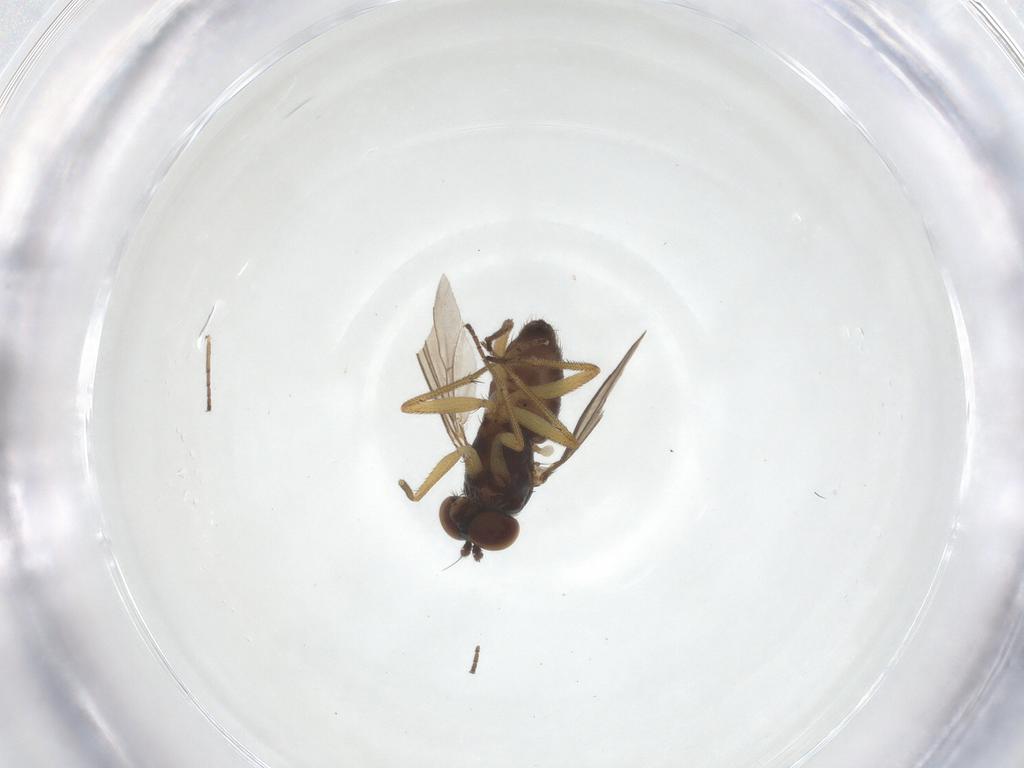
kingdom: Animalia
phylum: Arthropoda
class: Insecta
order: Diptera
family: Dolichopodidae
